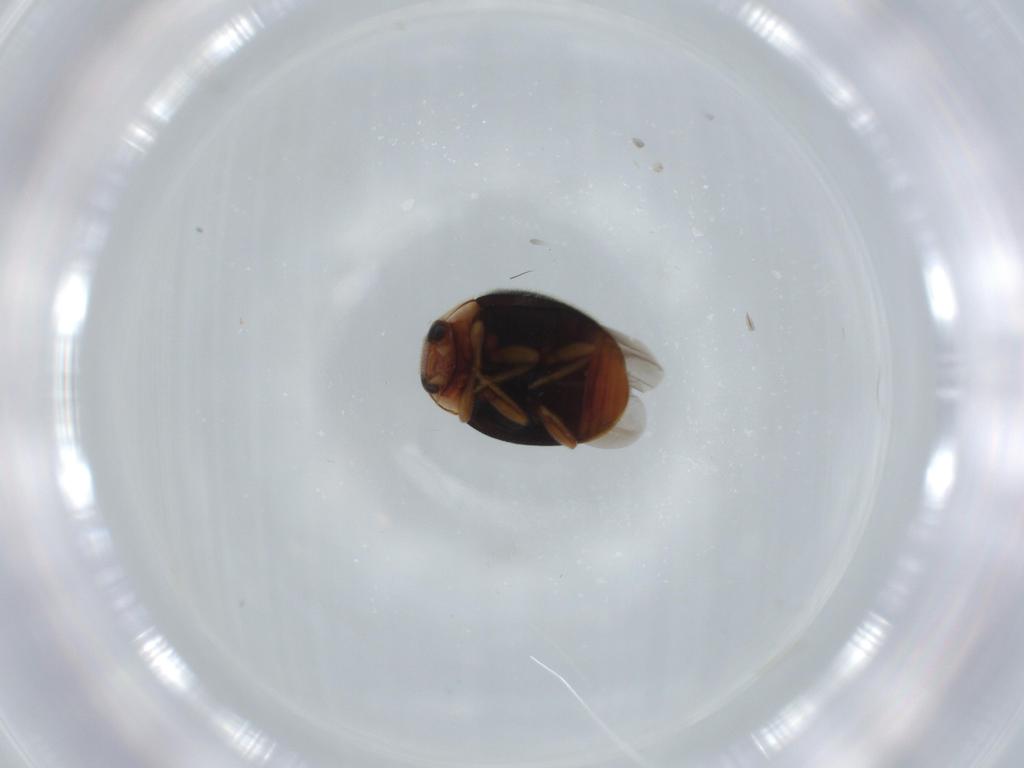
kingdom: Animalia
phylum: Arthropoda
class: Insecta
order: Coleoptera
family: Coccinellidae
